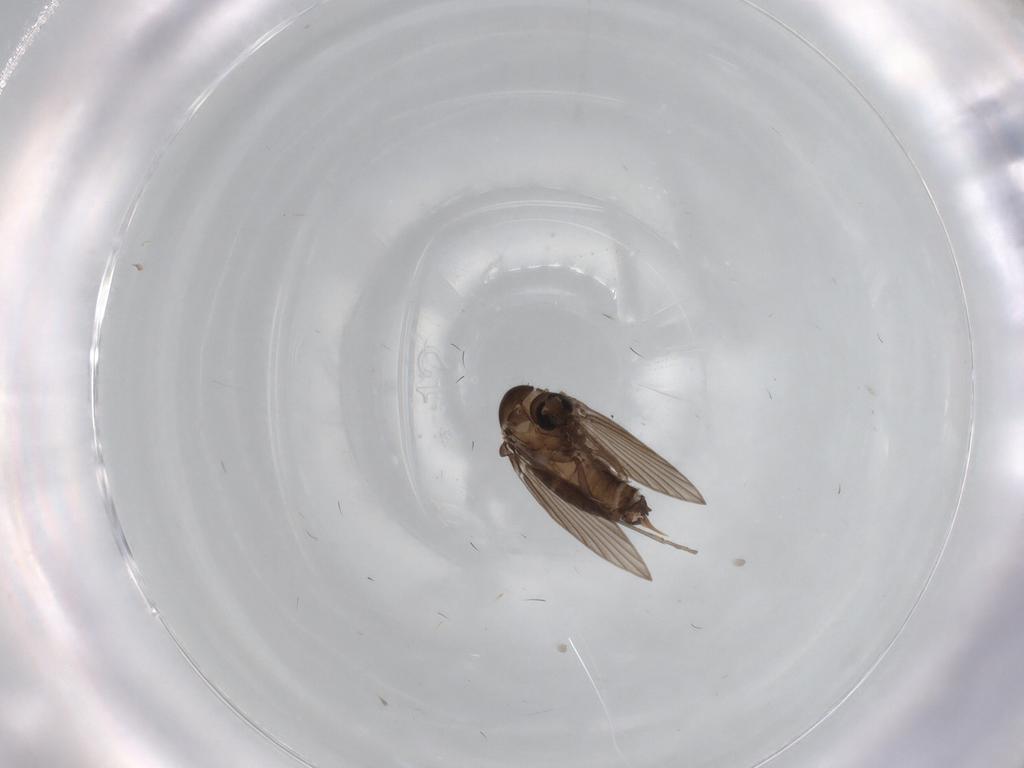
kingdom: Animalia
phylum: Arthropoda
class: Insecta
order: Diptera
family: Psychodidae
